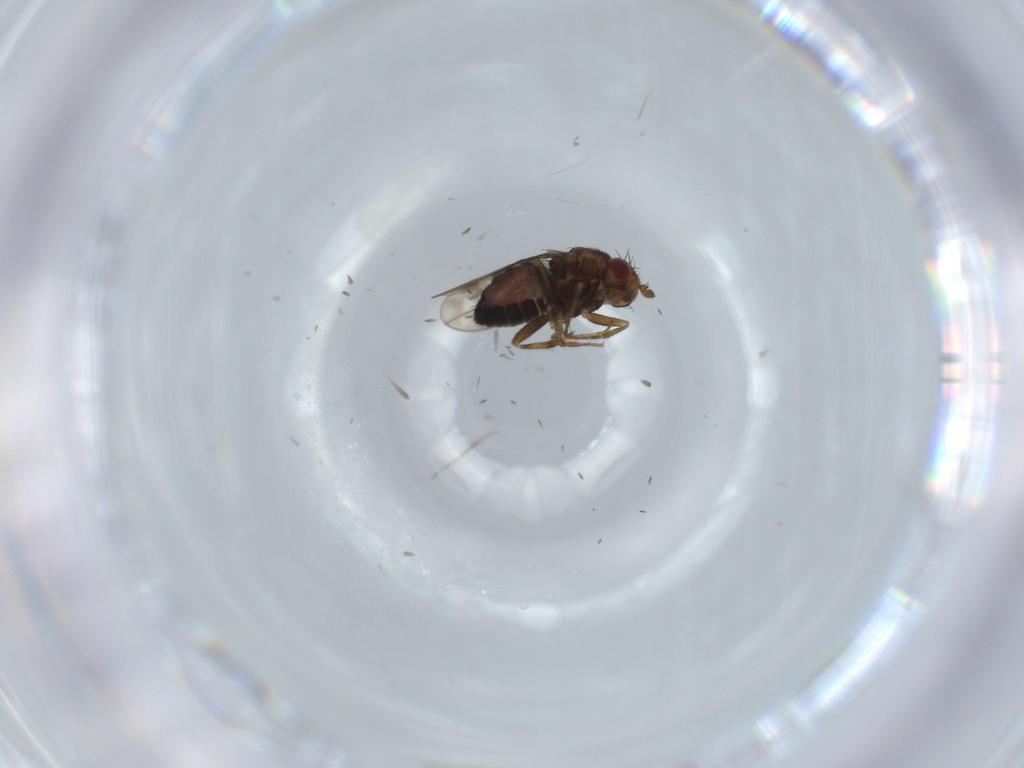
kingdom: Animalia
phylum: Arthropoda
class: Insecta
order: Diptera
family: Sphaeroceridae
